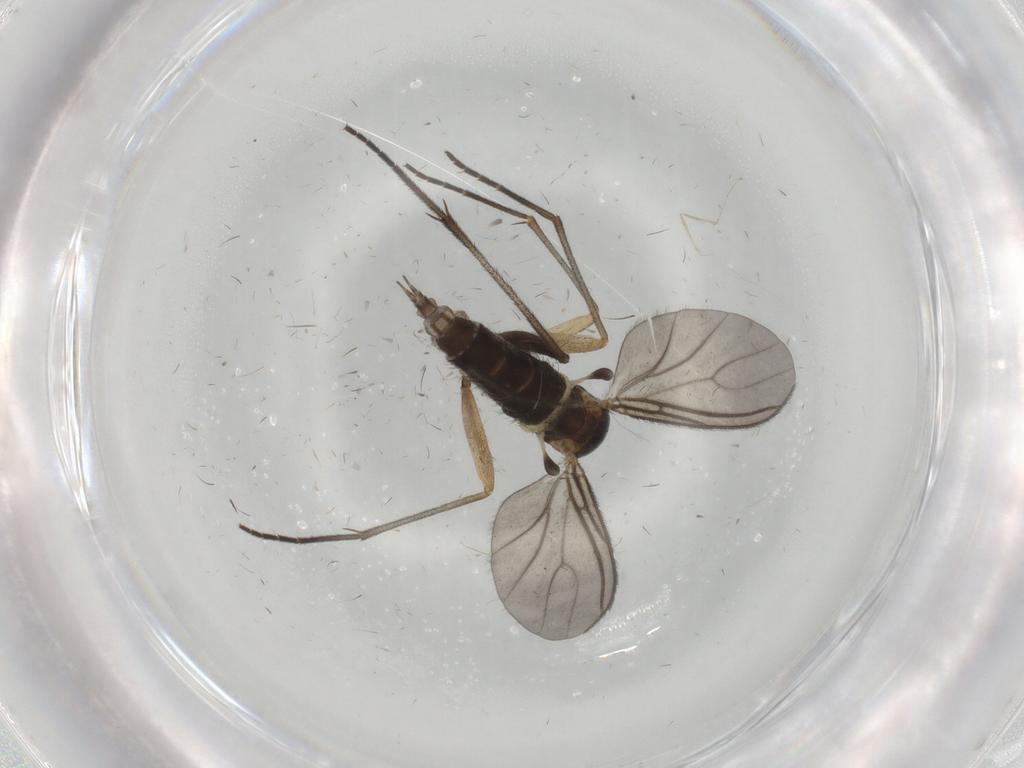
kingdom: Animalia
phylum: Arthropoda
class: Insecta
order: Diptera
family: Sciaridae
